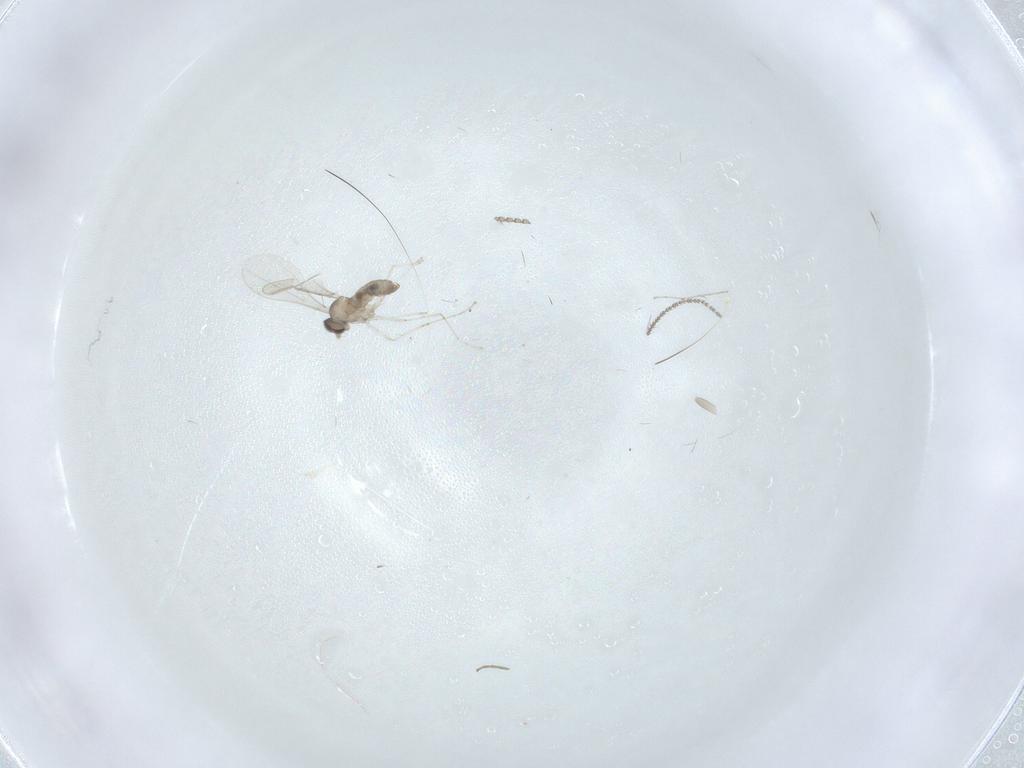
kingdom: Animalia
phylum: Arthropoda
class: Insecta
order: Diptera
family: Cecidomyiidae
